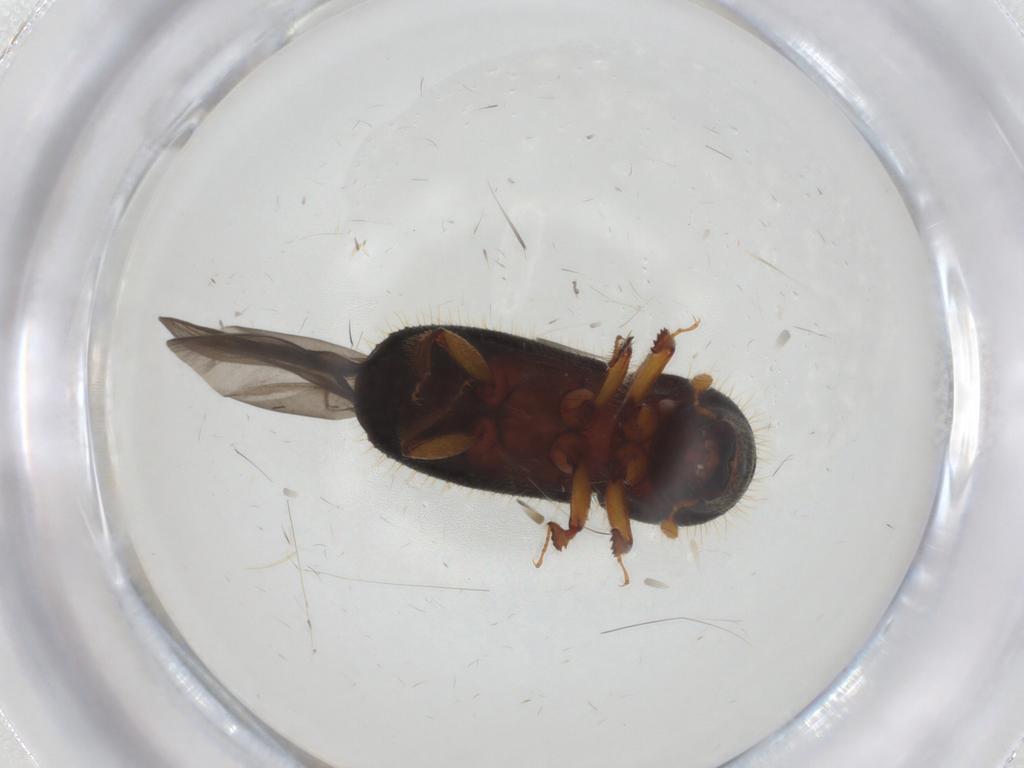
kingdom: Animalia
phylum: Arthropoda
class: Insecta
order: Coleoptera
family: Curculionidae
